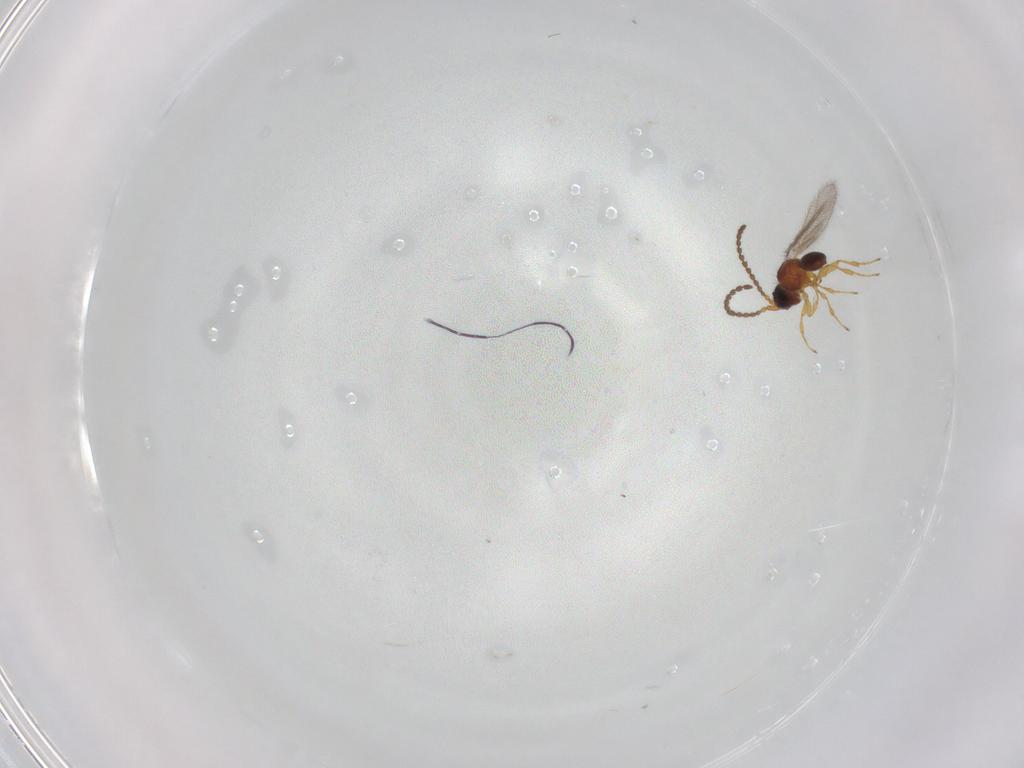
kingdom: Animalia
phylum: Arthropoda
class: Insecta
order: Hymenoptera
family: Diapriidae
